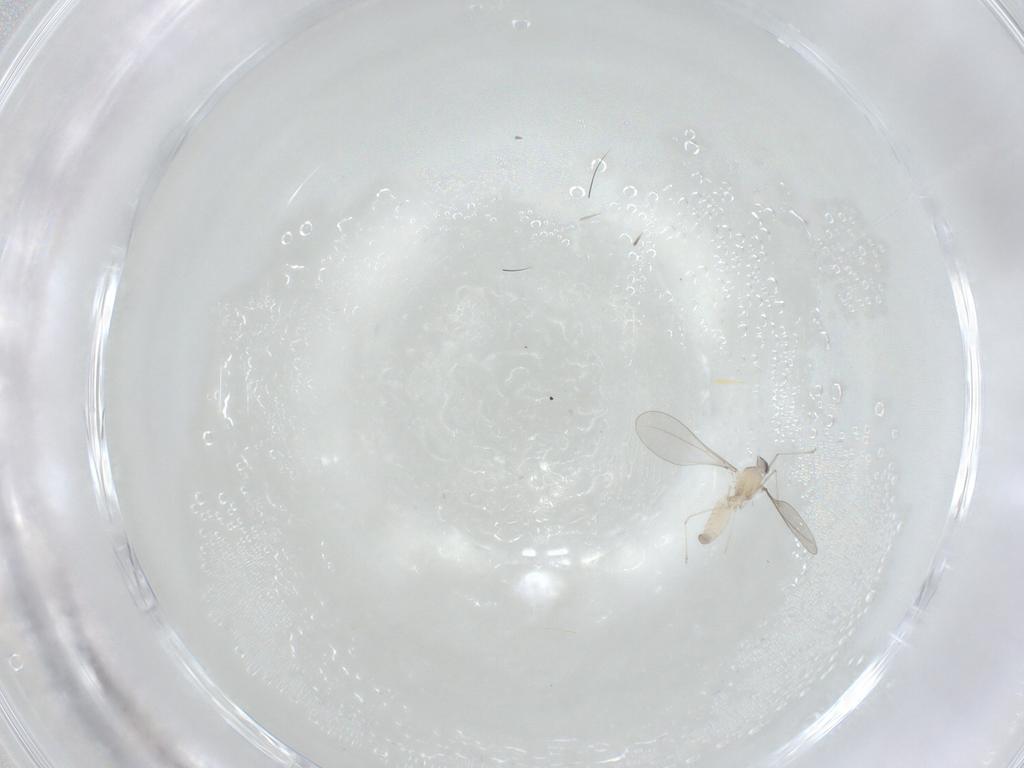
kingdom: Animalia
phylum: Arthropoda
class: Insecta
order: Diptera
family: Cecidomyiidae
